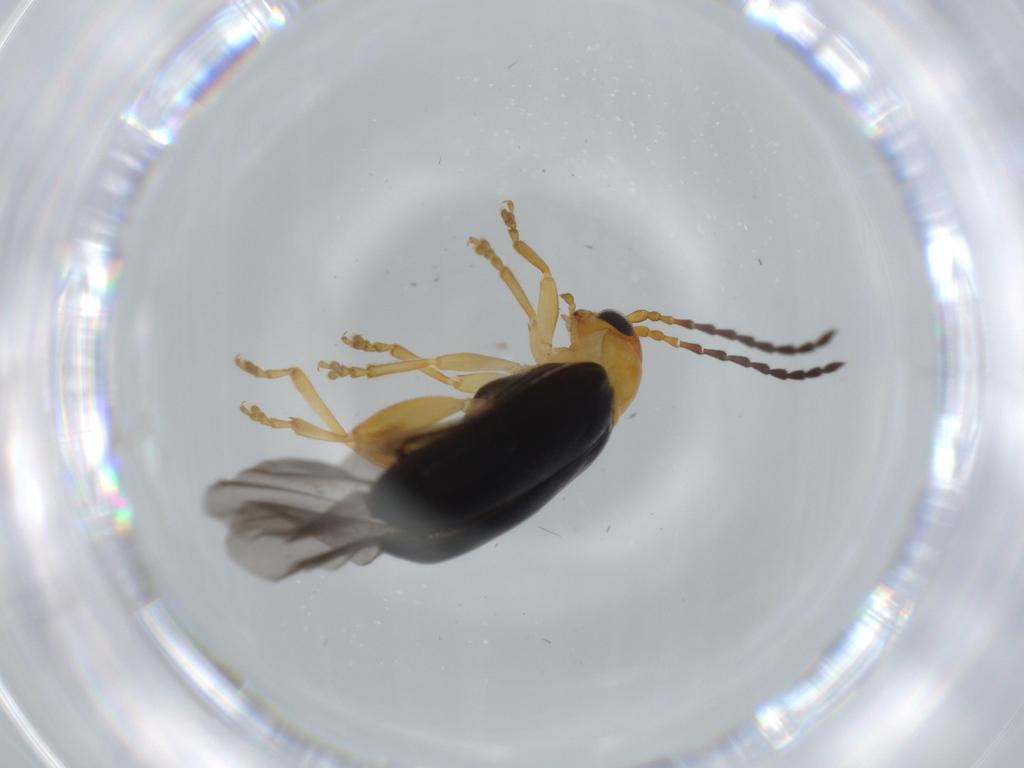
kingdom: Animalia
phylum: Arthropoda
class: Insecta
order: Coleoptera
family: Chrysomelidae
